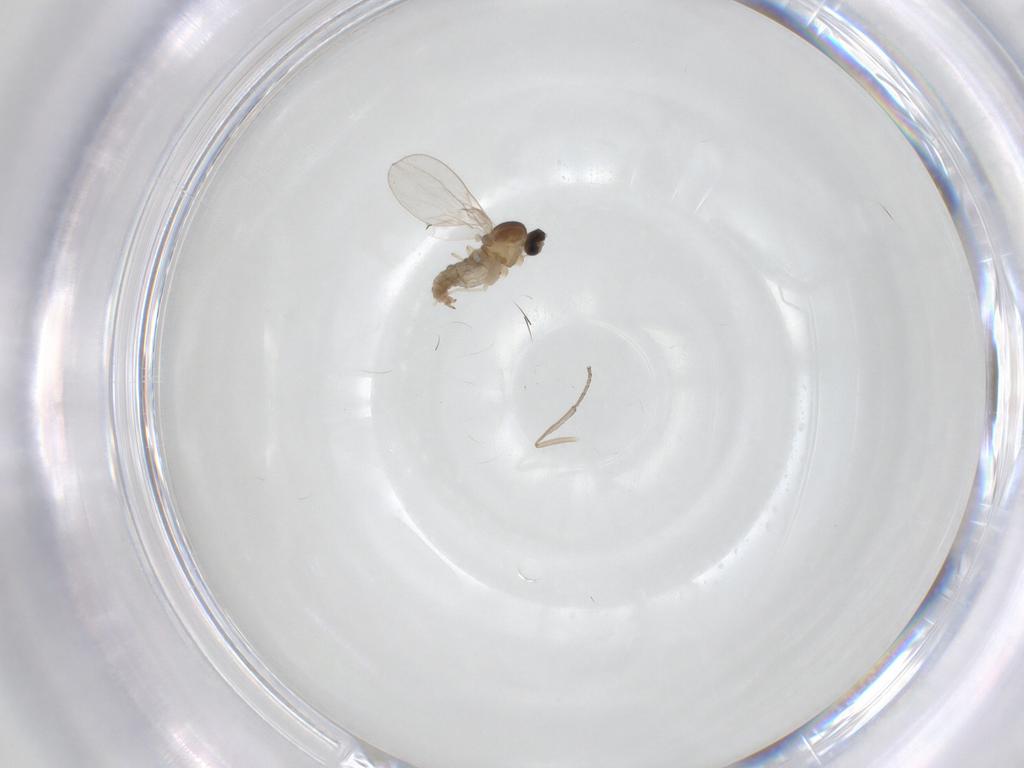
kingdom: Animalia
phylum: Arthropoda
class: Insecta
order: Diptera
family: Cecidomyiidae
